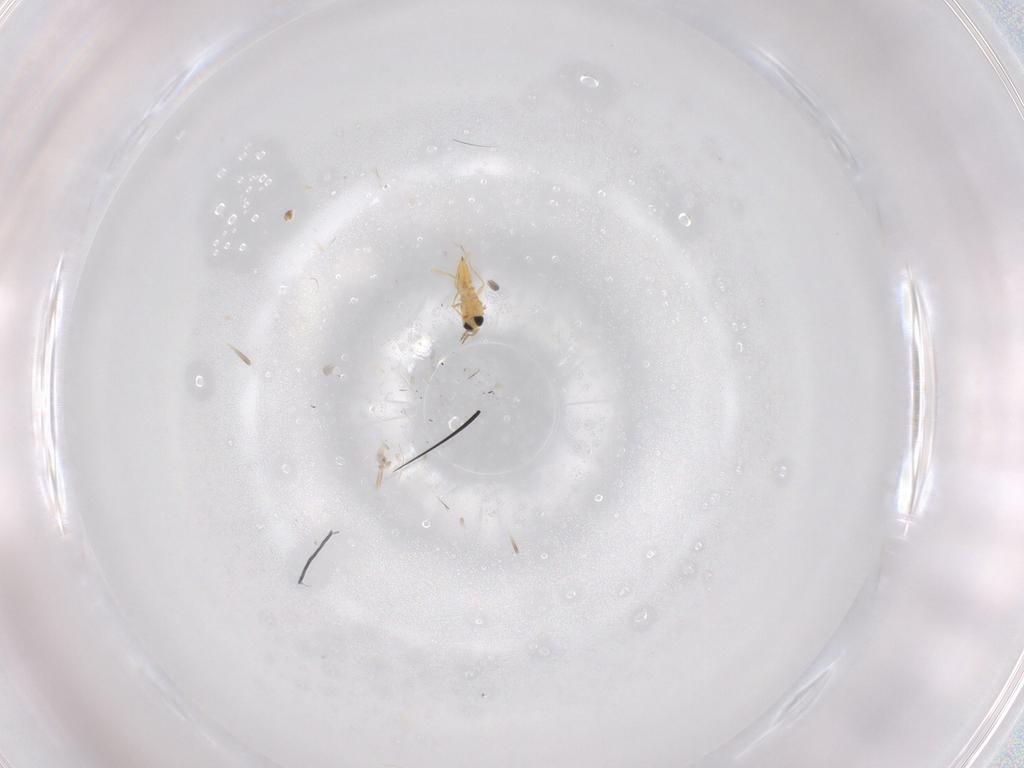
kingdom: Animalia
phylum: Arthropoda
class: Insecta
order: Hymenoptera
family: Trichogrammatidae
